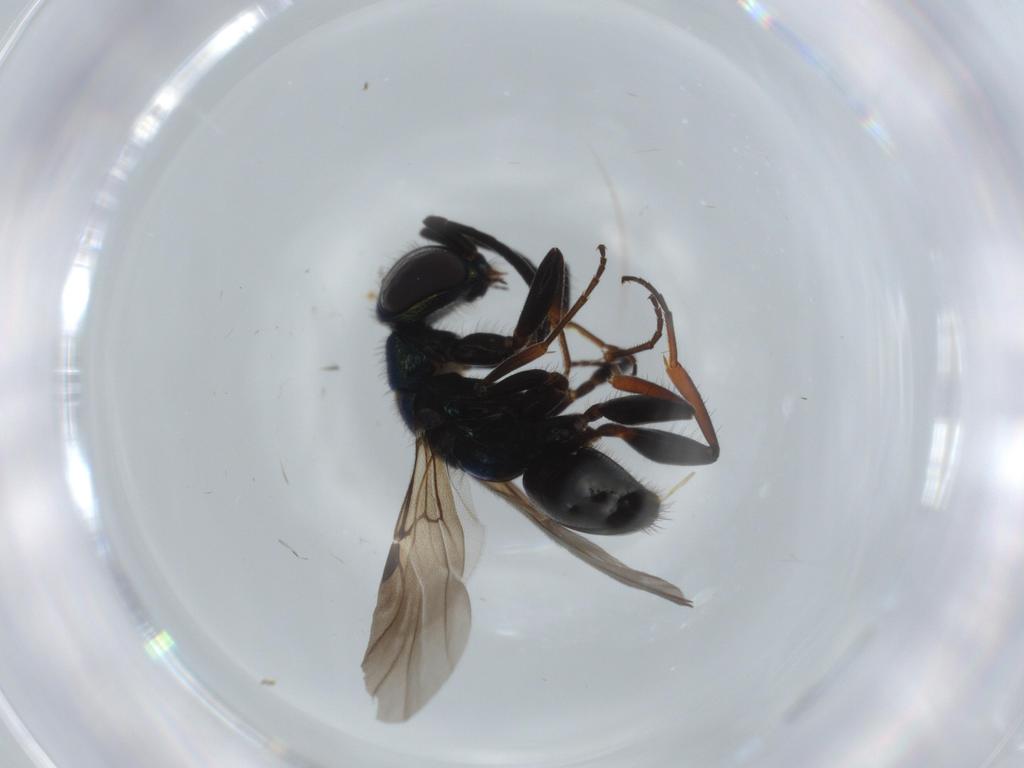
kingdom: Animalia
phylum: Arthropoda
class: Insecta
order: Hymenoptera
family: Chrysididae
